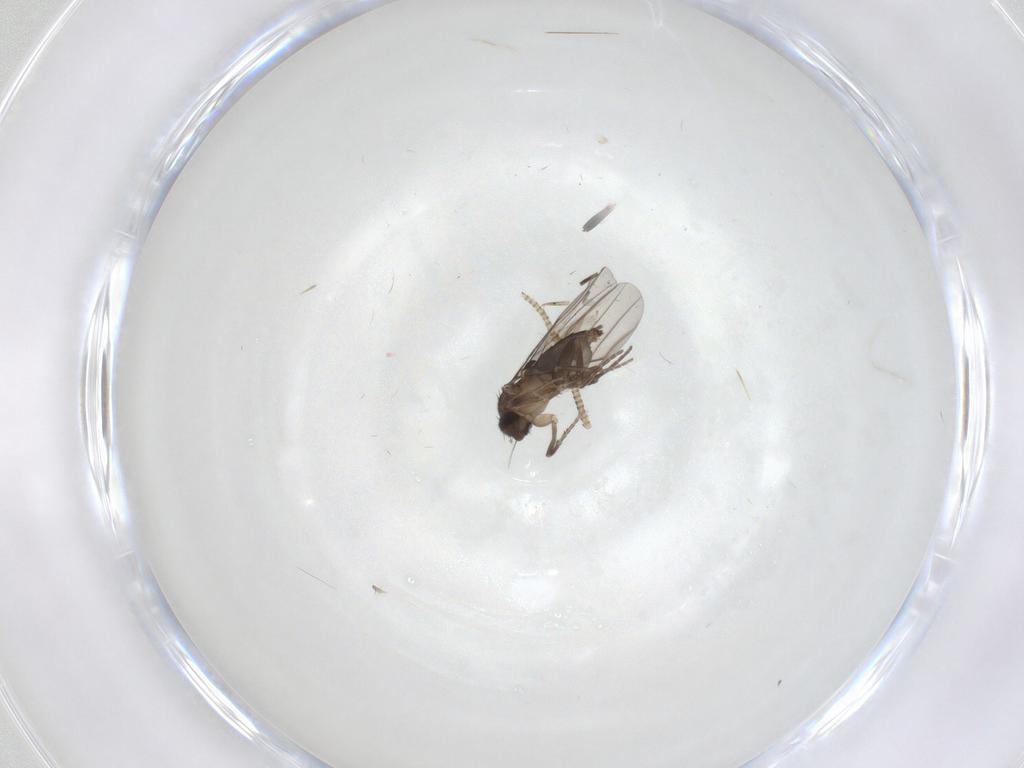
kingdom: Animalia
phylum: Arthropoda
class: Insecta
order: Diptera
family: Phoridae
